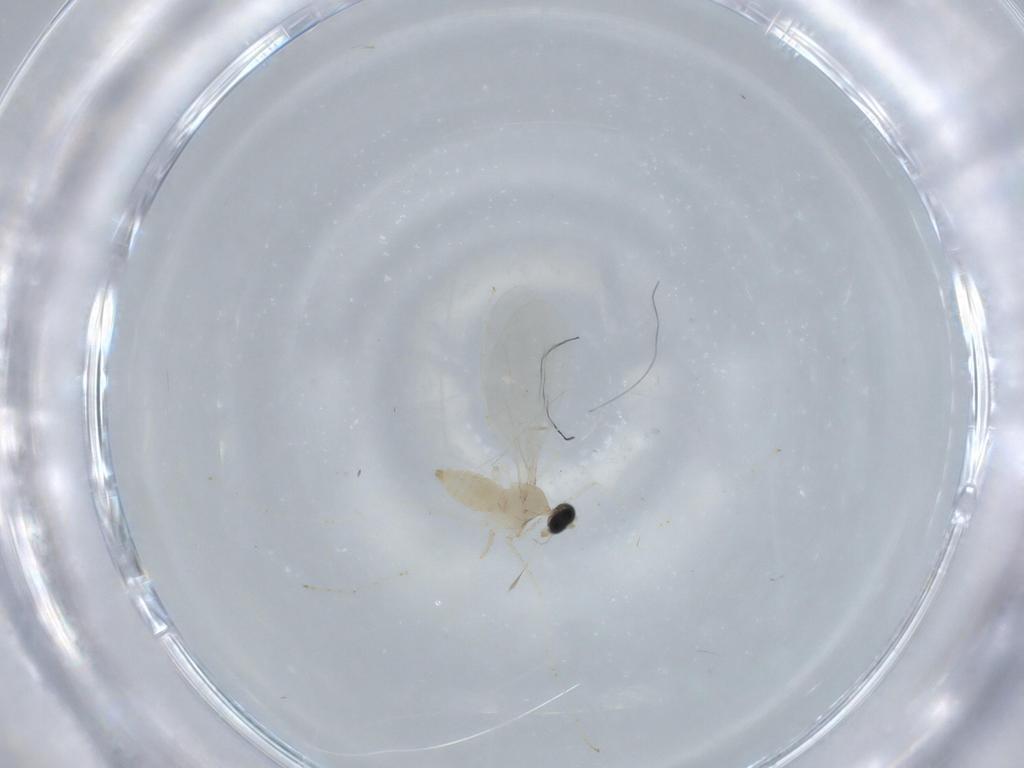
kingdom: Animalia
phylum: Arthropoda
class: Insecta
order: Diptera
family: Cecidomyiidae
